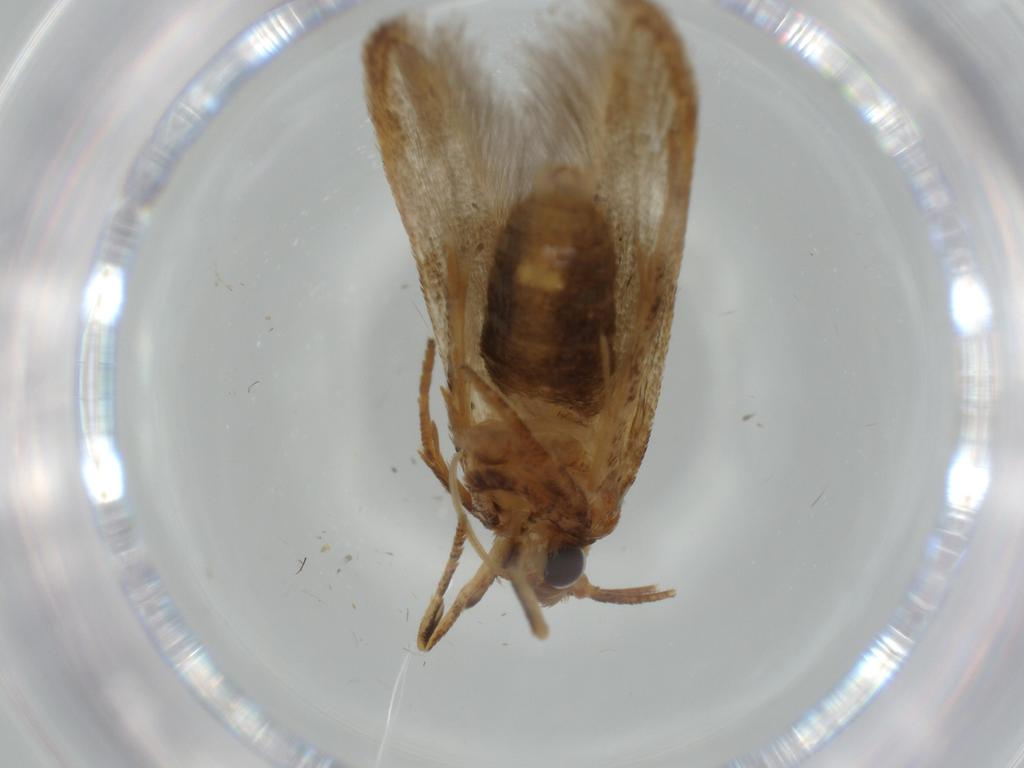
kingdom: Animalia
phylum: Arthropoda
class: Insecta
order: Lepidoptera
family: Blastobasidae
